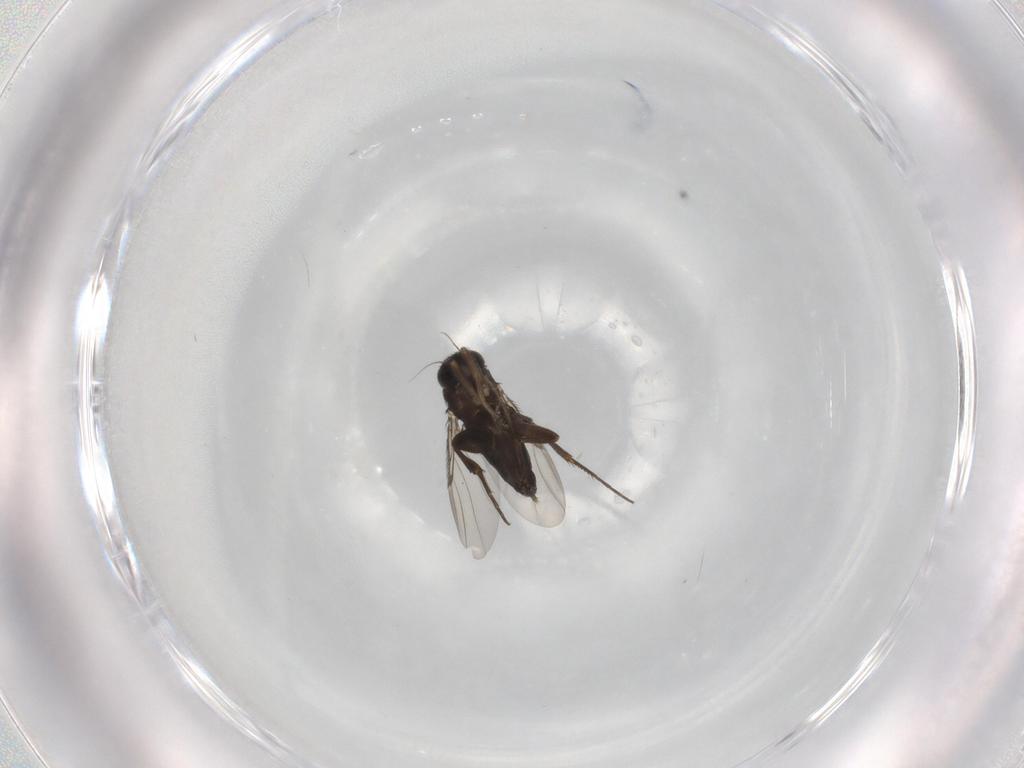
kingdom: Animalia
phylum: Arthropoda
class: Insecta
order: Diptera
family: Phoridae
